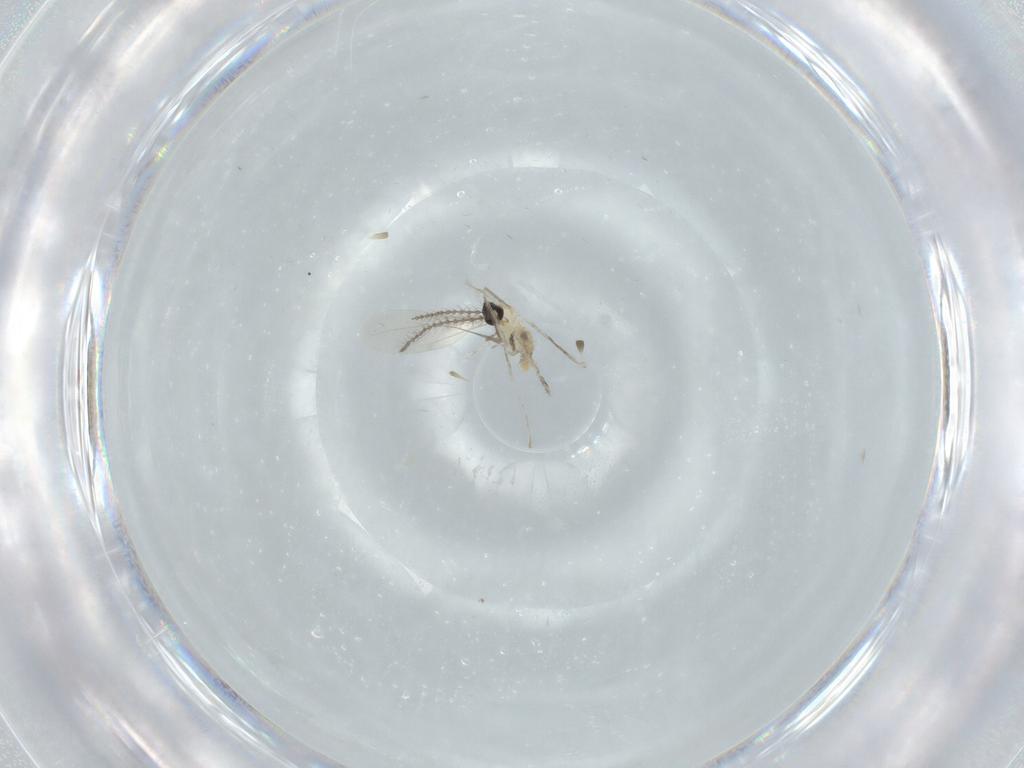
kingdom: Animalia
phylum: Arthropoda
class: Insecta
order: Diptera
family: Cecidomyiidae
